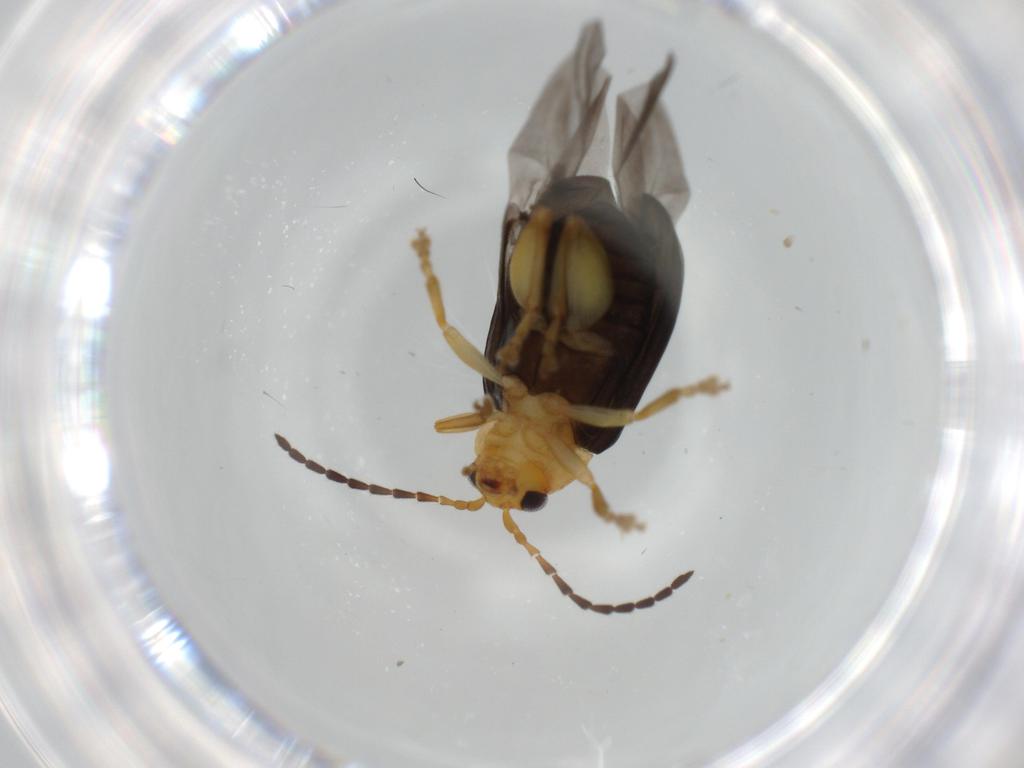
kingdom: Animalia
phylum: Arthropoda
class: Insecta
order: Coleoptera
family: Chrysomelidae
